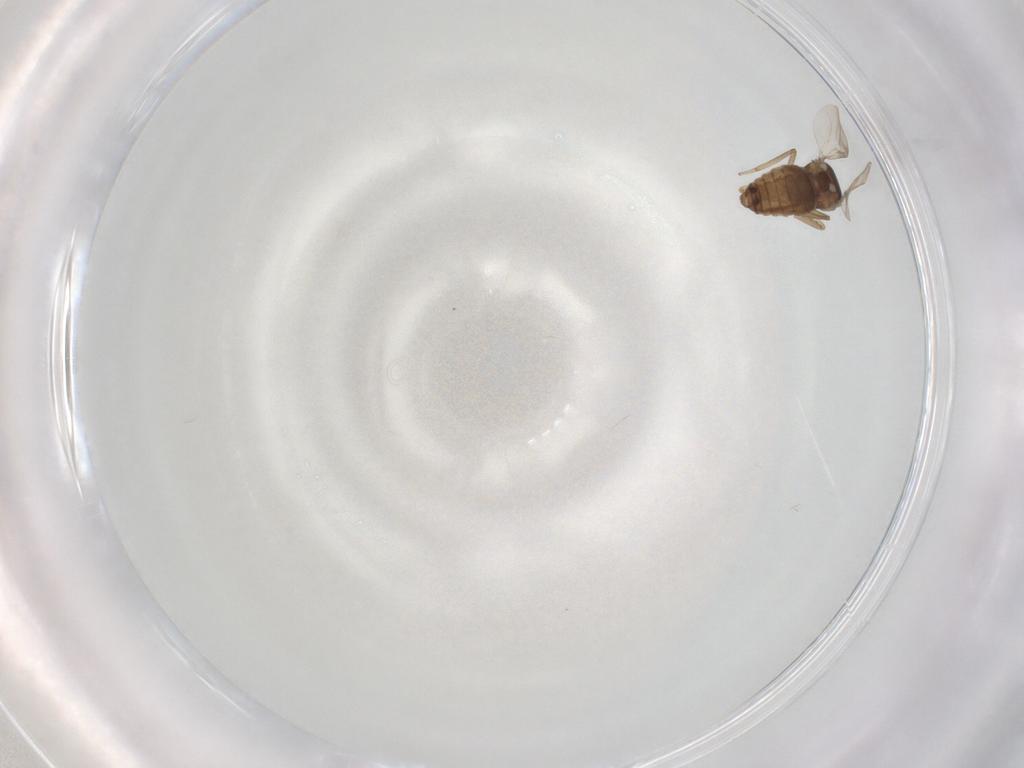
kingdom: Animalia
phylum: Arthropoda
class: Insecta
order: Diptera
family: Ceratopogonidae
